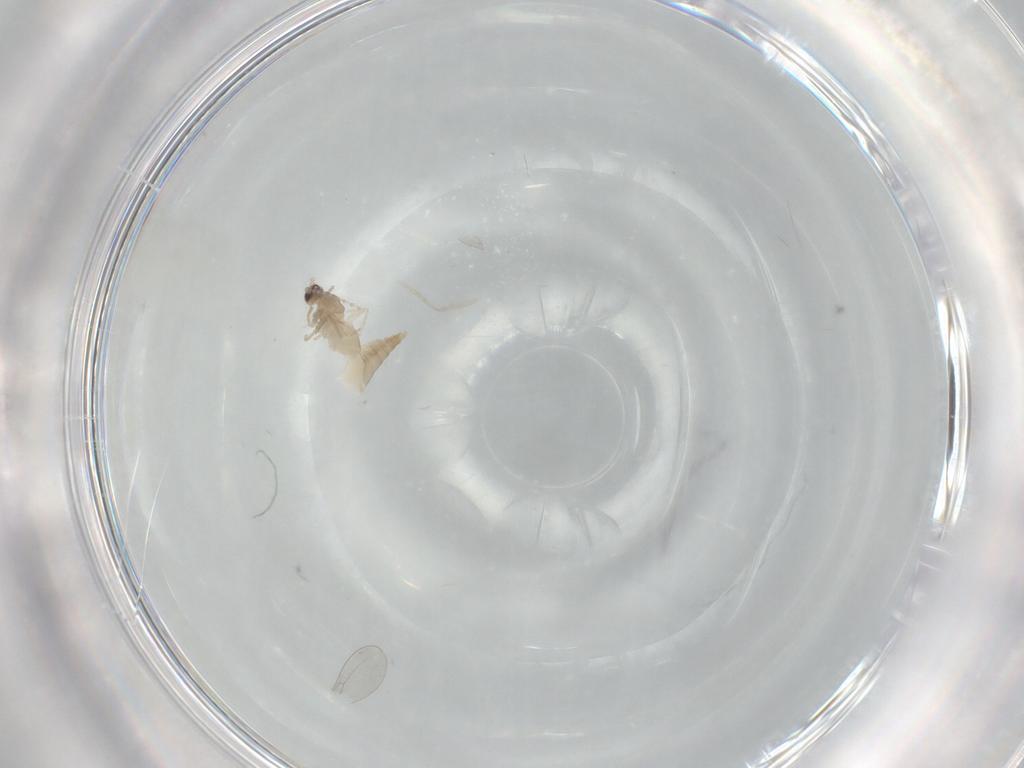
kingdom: Animalia
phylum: Arthropoda
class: Insecta
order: Diptera
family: Cecidomyiidae
